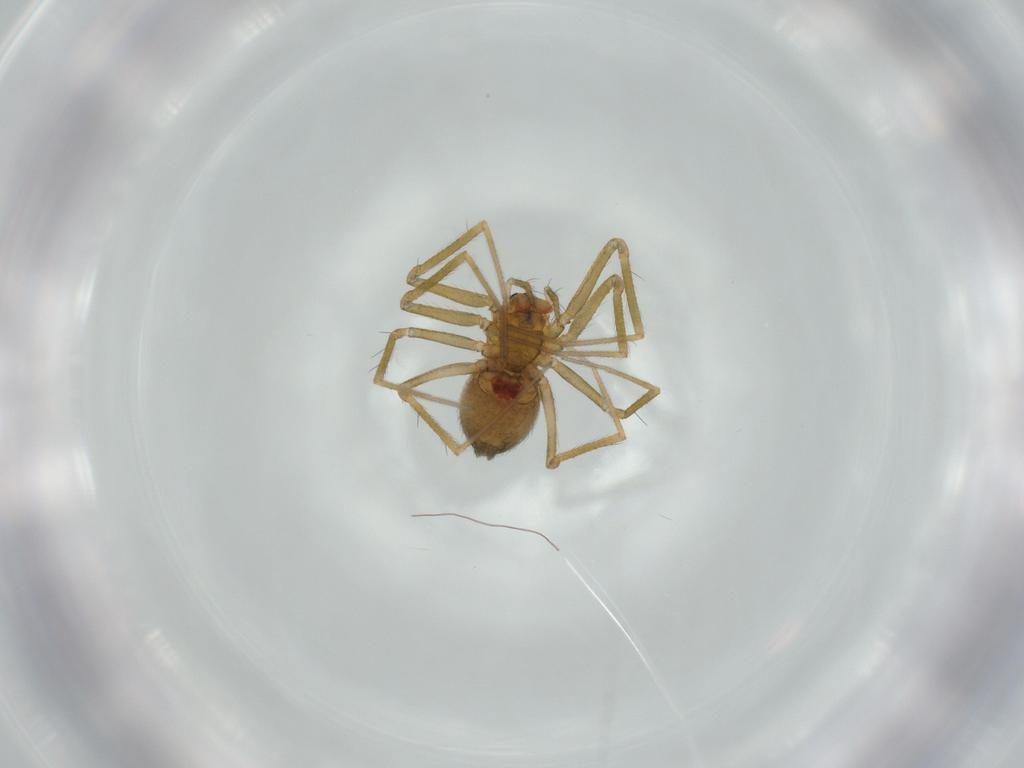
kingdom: Animalia
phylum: Arthropoda
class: Arachnida
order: Araneae
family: Linyphiidae
